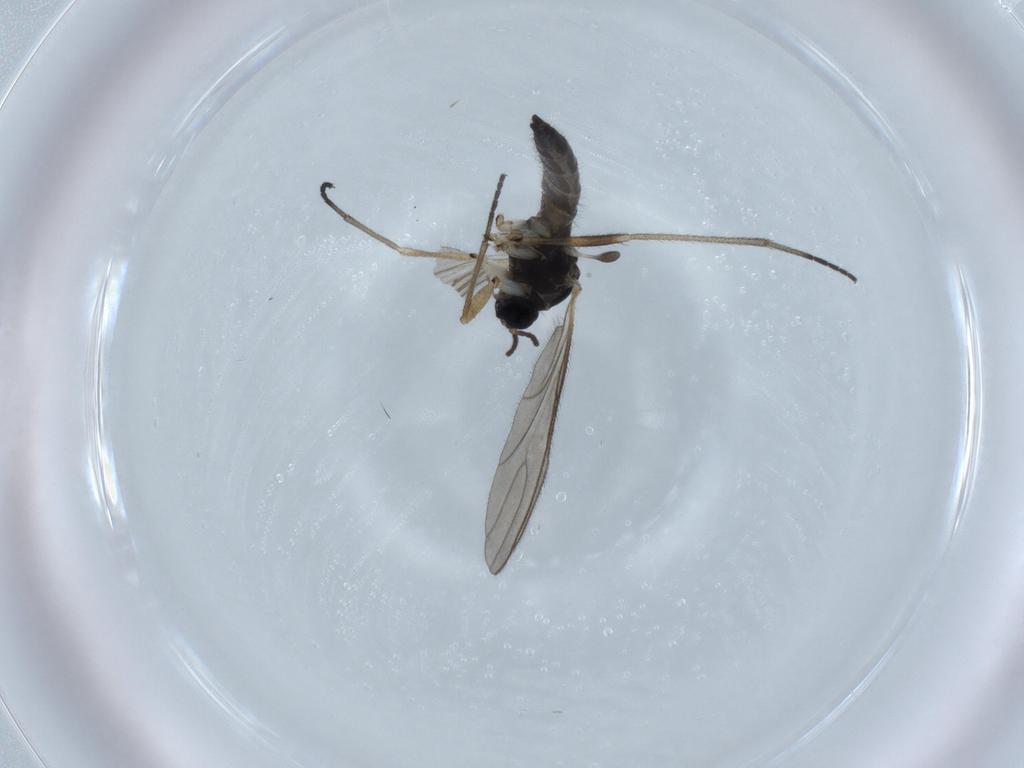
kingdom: Animalia
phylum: Arthropoda
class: Insecta
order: Diptera
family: Sciaridae
